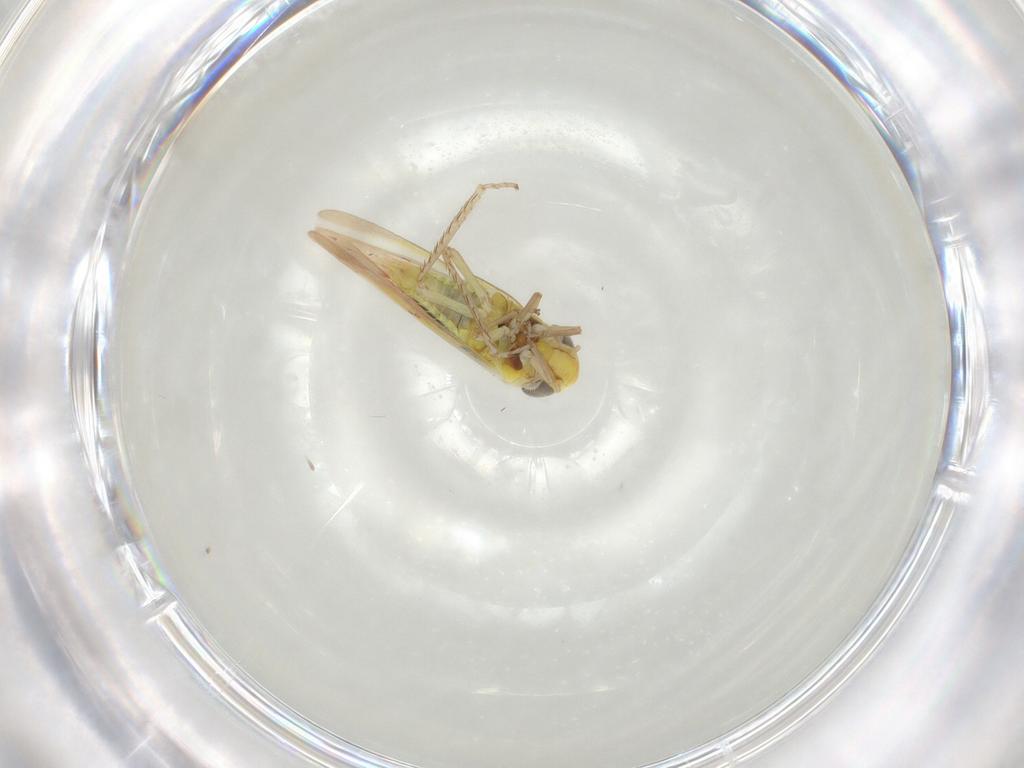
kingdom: Animalia
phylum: Arthropoda
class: Insecta
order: Hemiptera
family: Cicadellidae
